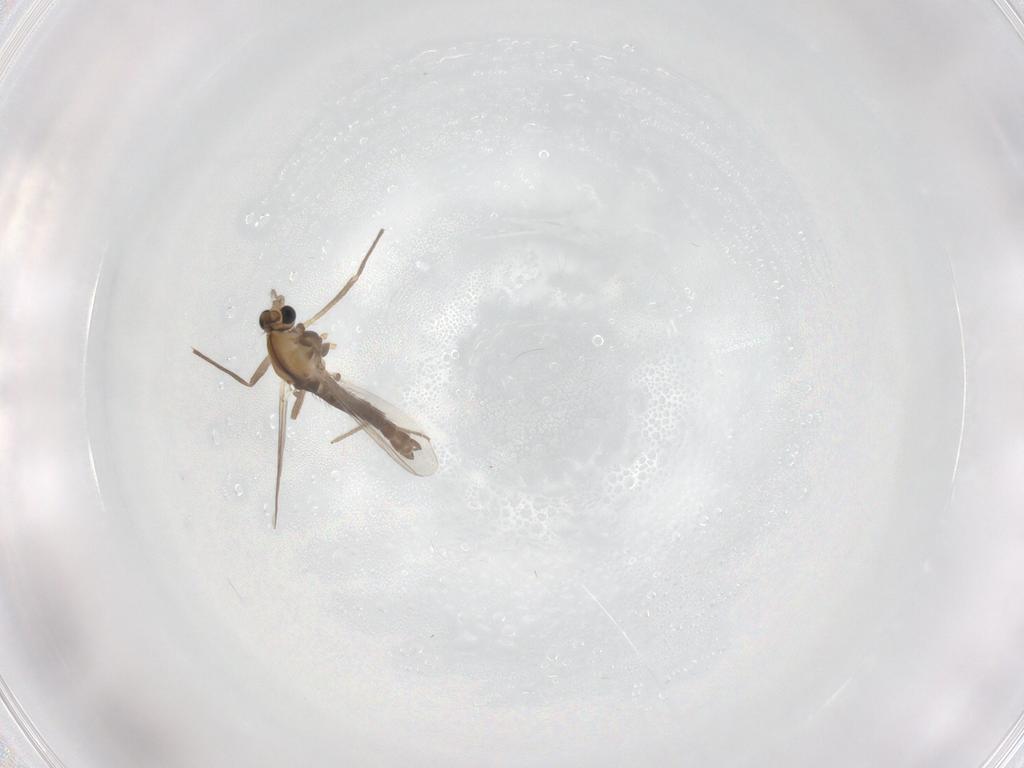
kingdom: Animalia
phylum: Arthropoda
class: Insecta
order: Diptera
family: Chironomidae
